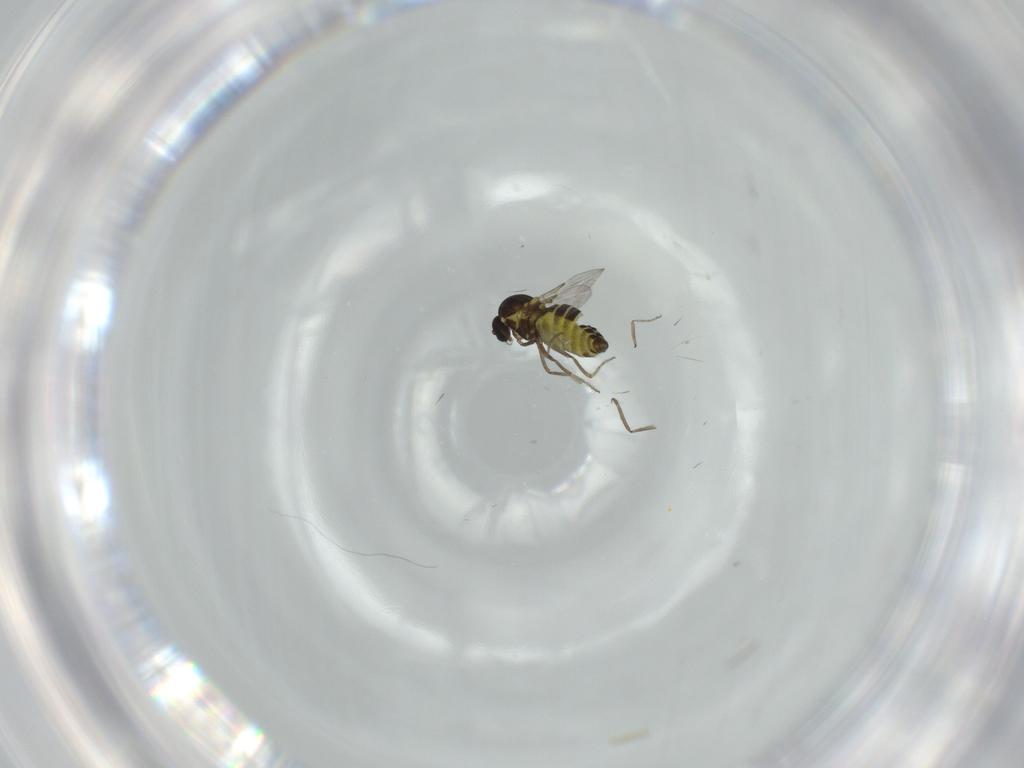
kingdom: Animalia
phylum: Arthropoda
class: Insecta
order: Diptera
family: Ceratopogonidae
